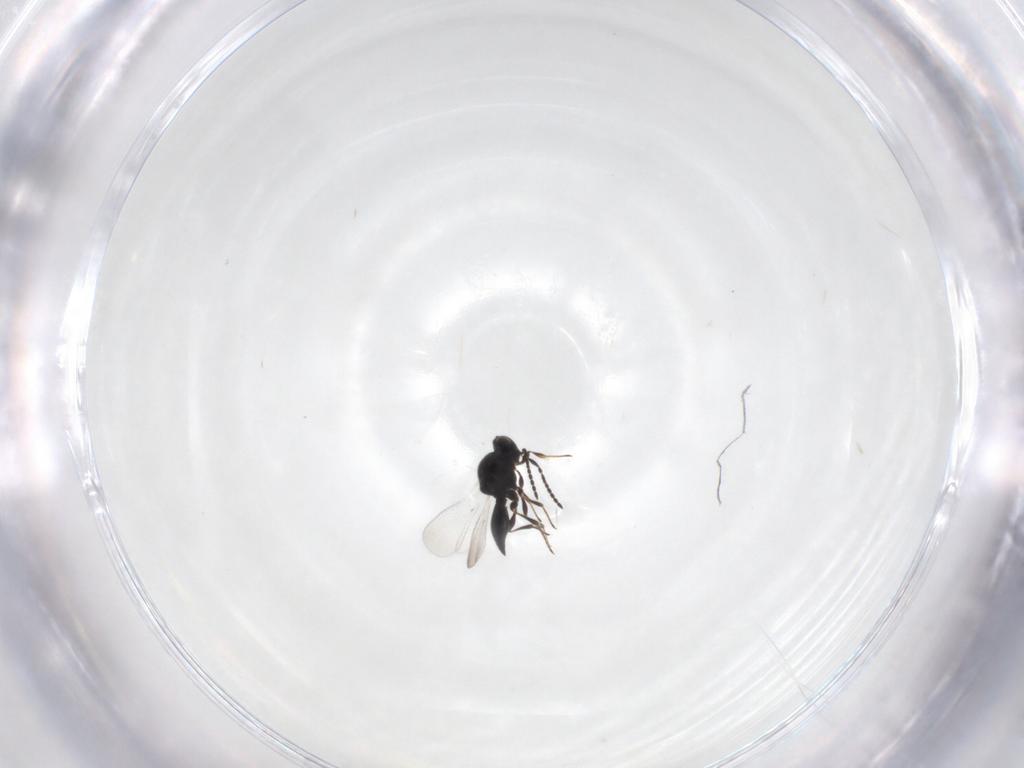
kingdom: Animalia
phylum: Arthropoda
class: Insecta
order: Hymenoptera
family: Platygastridae
